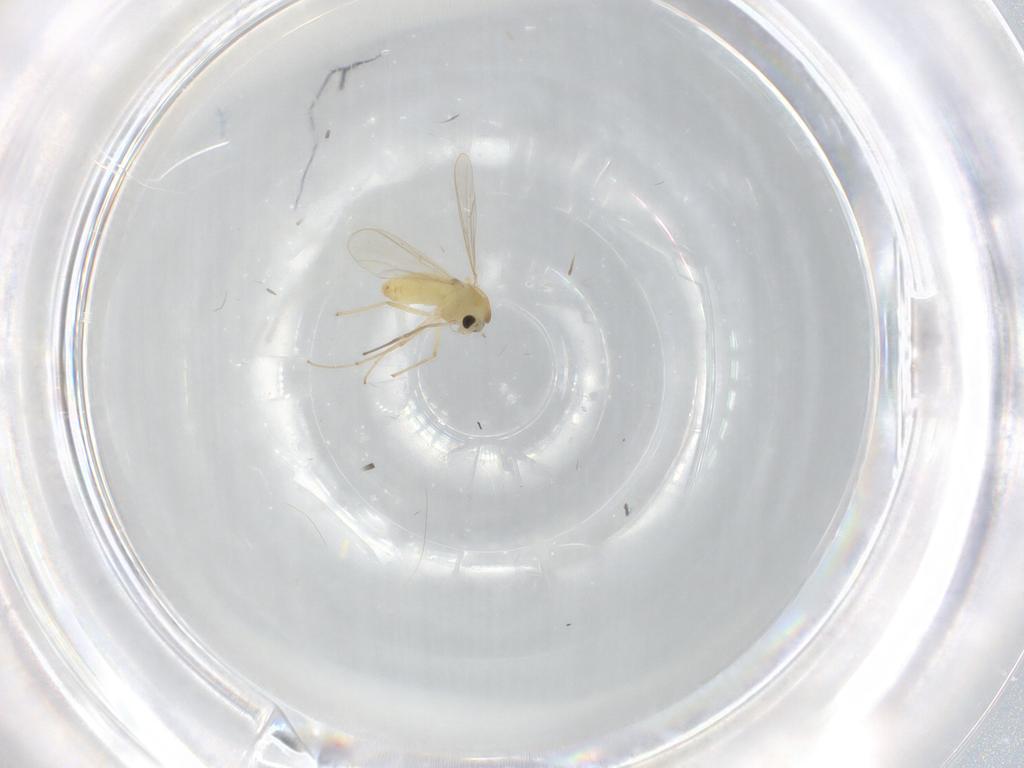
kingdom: Animalia
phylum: Arthropoda
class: Insecta
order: Diptera
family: Chironomidae
